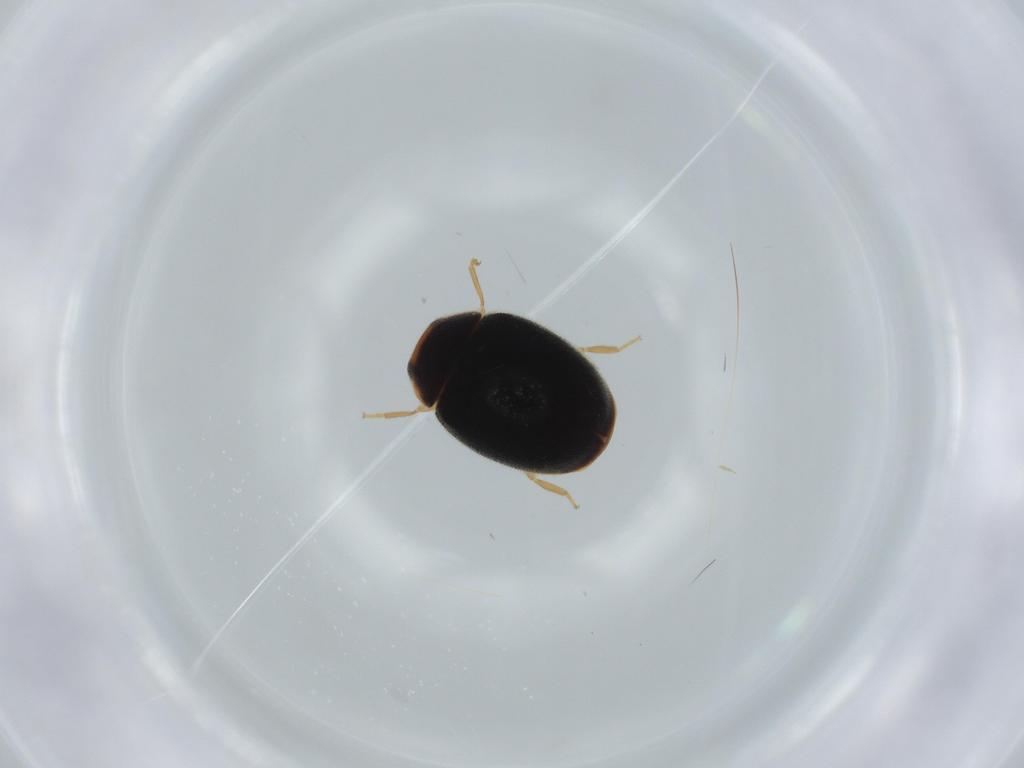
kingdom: Animalia
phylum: Arthropoda
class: Insecta
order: Coleoptera
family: Coccinellidae
